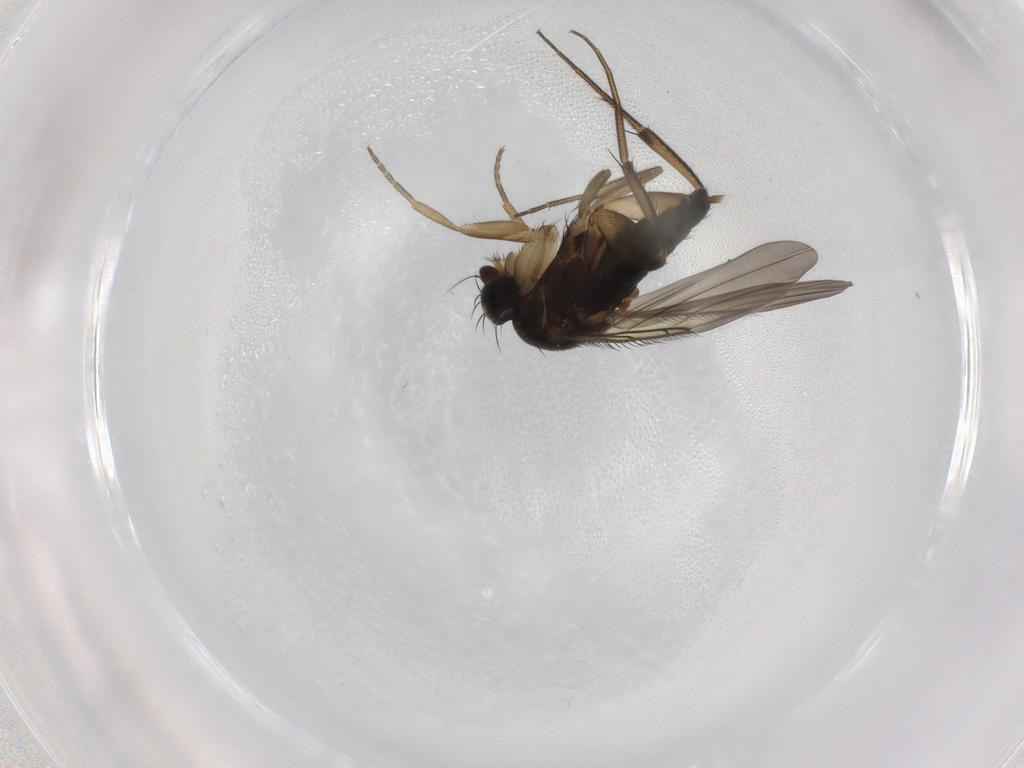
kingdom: Animalia
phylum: Arthropoda
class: Insecta
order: Diptera
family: Phoridae
